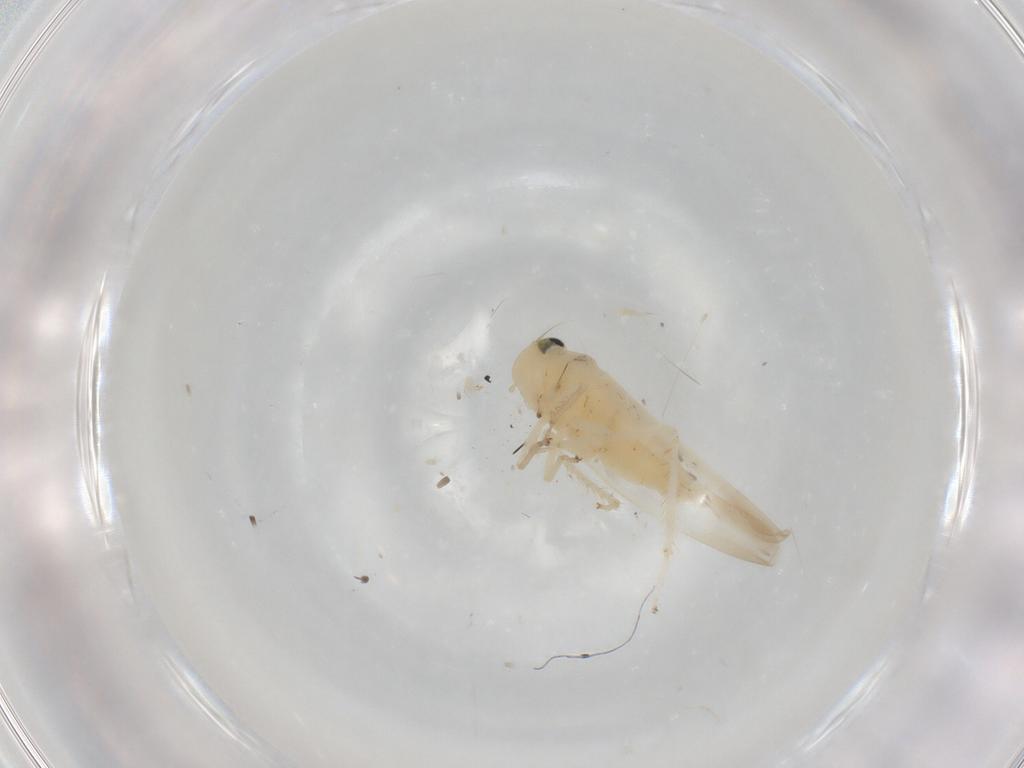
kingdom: Animalia
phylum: Arthropoda
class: Insecta
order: Hemiptera
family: Cicadellidae
